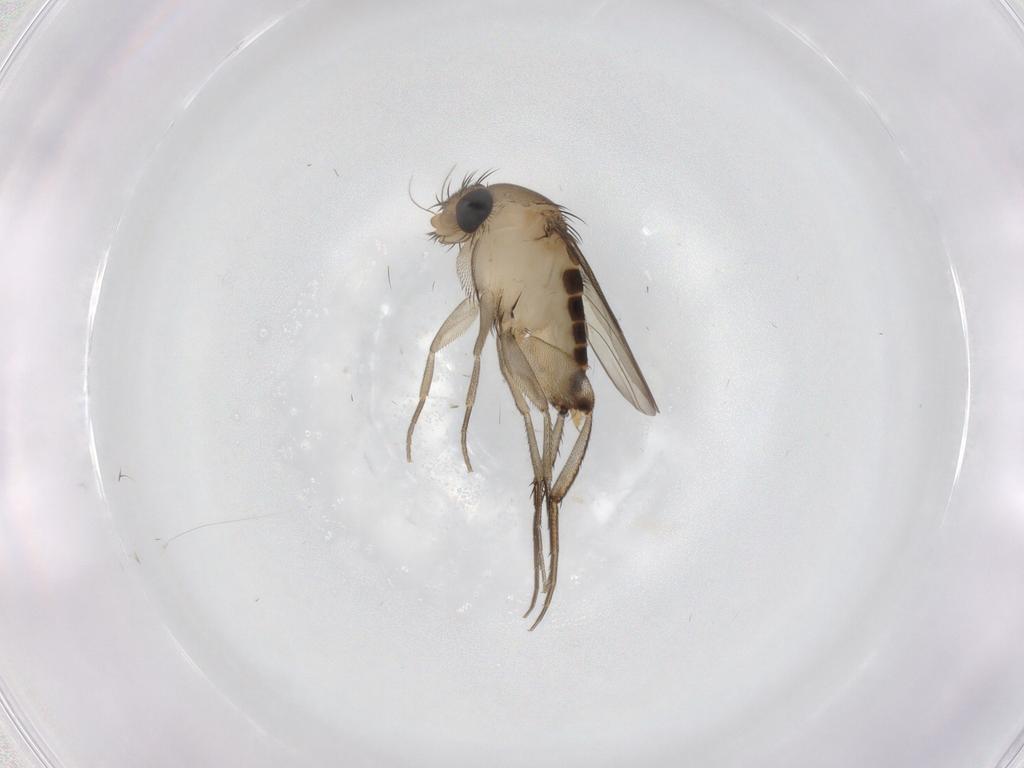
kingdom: Animalia
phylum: Arthropoda
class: Insecta
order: Diptera
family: Phoridae
